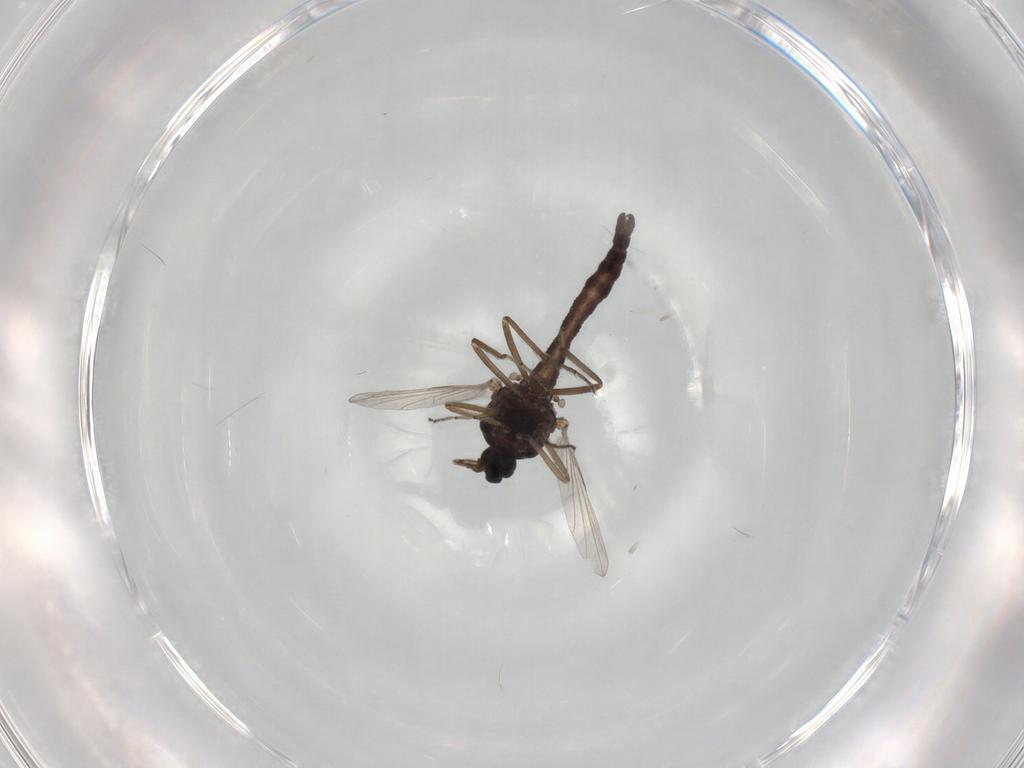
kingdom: Animalia
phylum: Arthropoda
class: Insecta
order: Diptera
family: Ceratopogonidae
